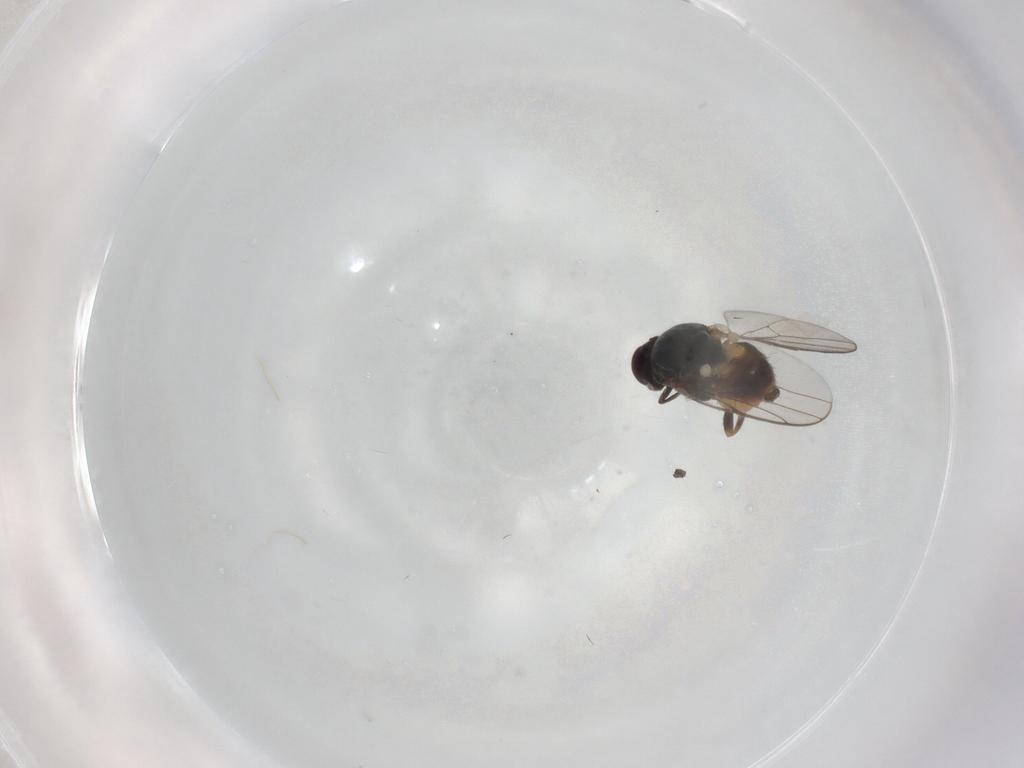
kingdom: Animalia
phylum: Arthropoda
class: Insecta
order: Diptera
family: Chloropidae
